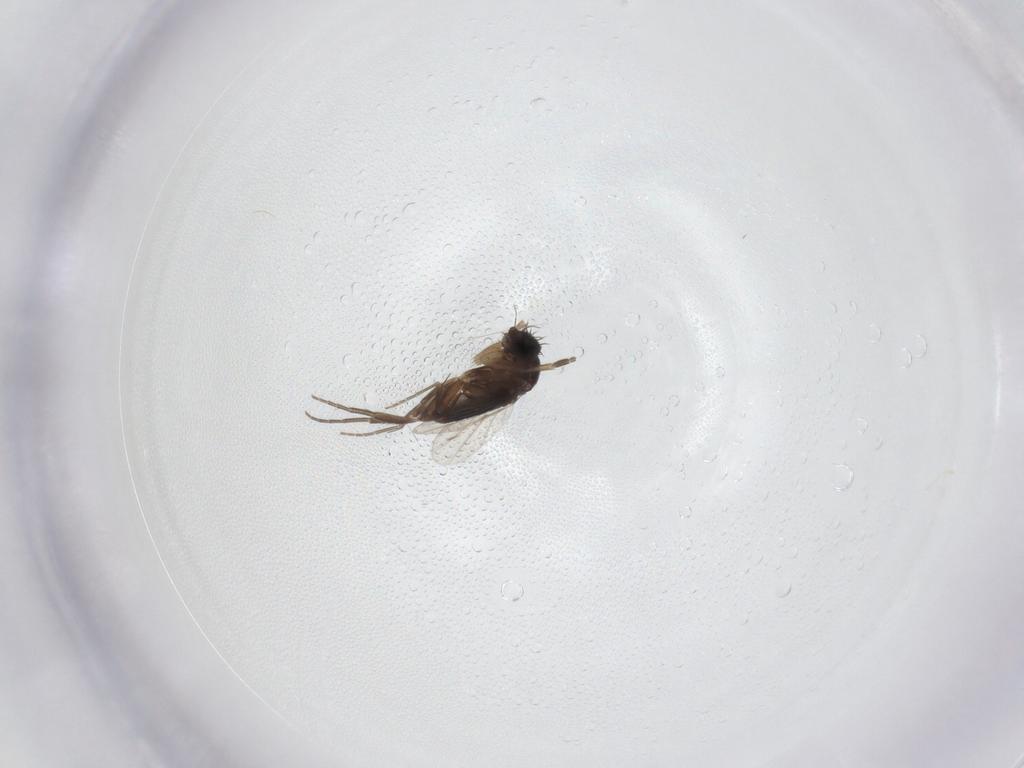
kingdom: Animalia
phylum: Arthropoda
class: Insecta
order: Diptera
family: Phoridae
